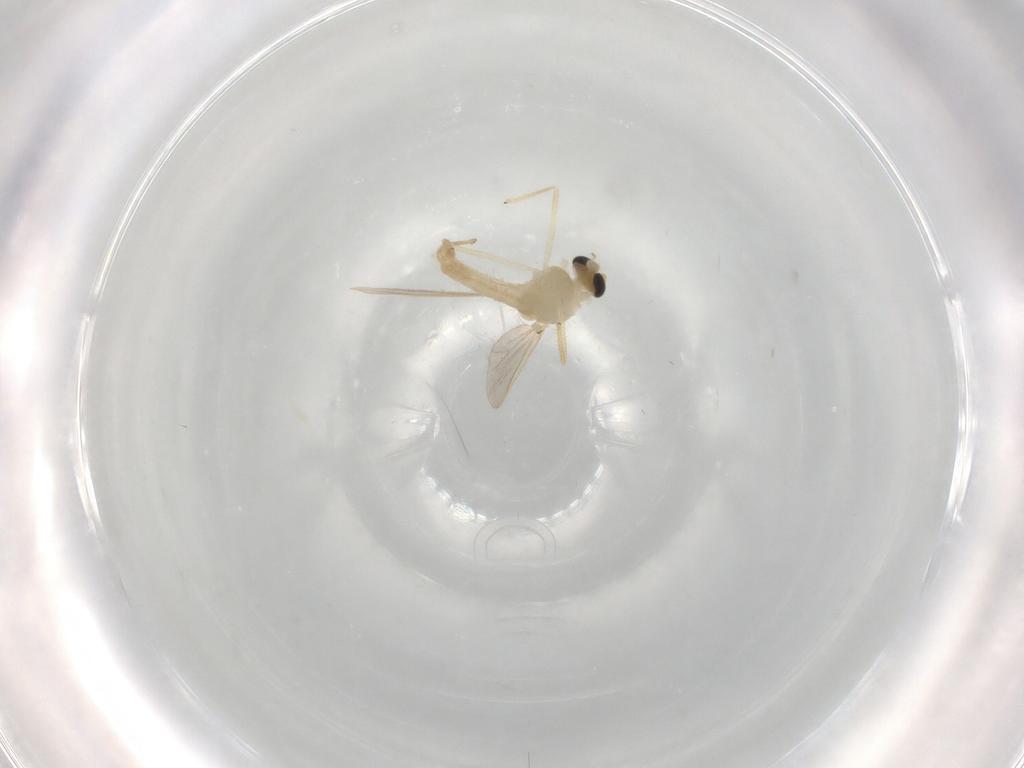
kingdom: Animalia
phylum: Arthropoda
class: Insecta
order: Diptera
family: Chironomidae
